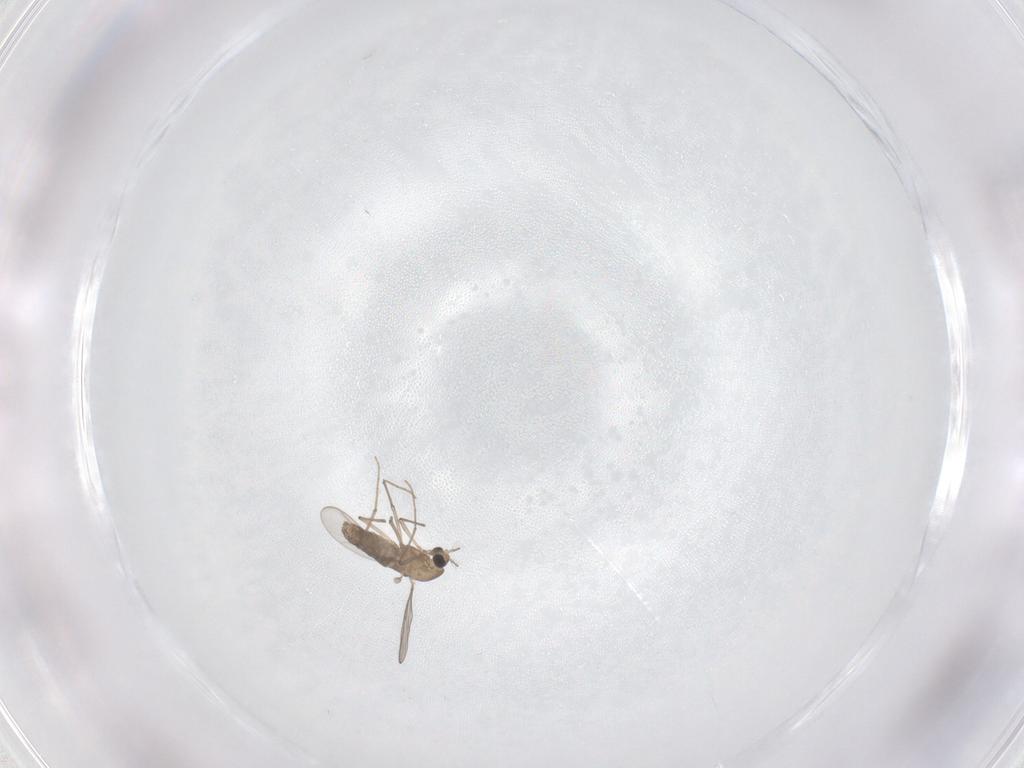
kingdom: Animalia
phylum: Arthropoda
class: Insecta
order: Diptera
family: Chironomidae
